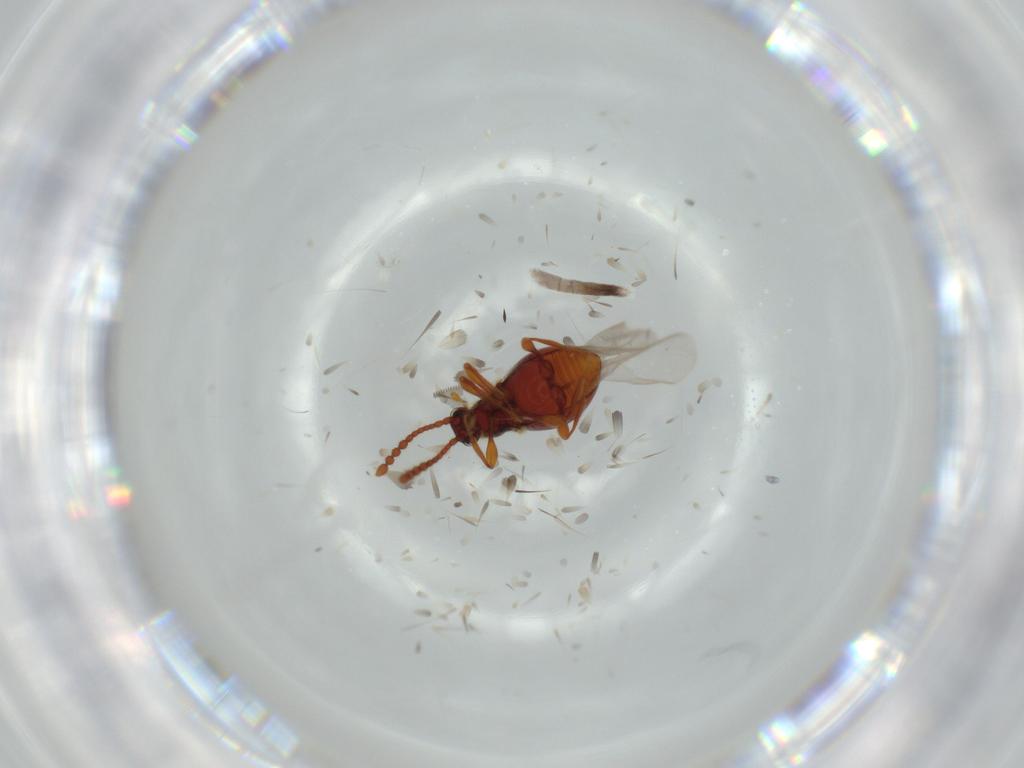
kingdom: Animalia
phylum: Arthropoda
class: Insecta
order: Coleoptera
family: Staphylinidae
